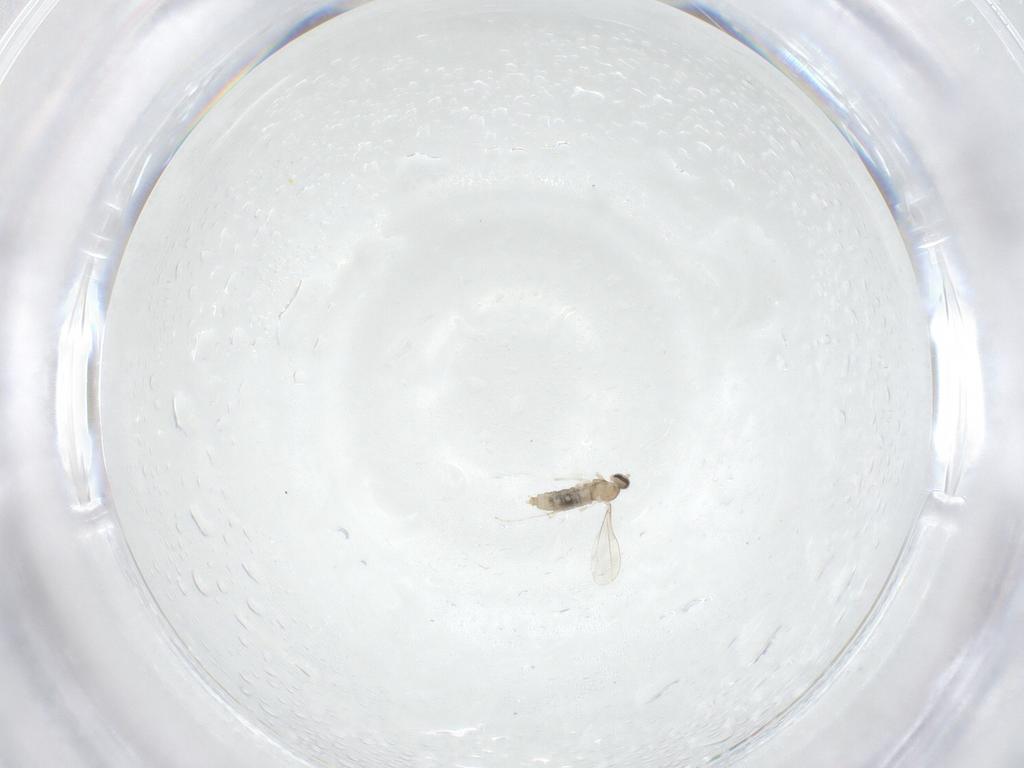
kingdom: Animalia
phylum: Arthropoda
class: Insecta
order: Diptera
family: Cecidomyiidae
